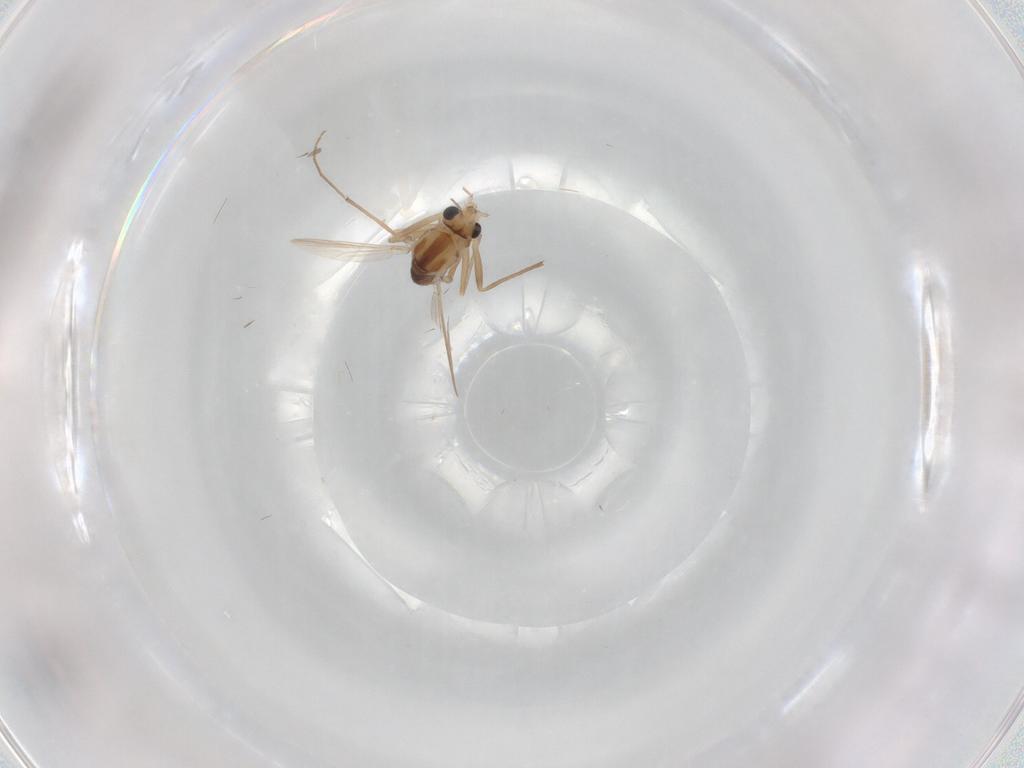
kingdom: Animalia
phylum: Arthropoda
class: Insecta
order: Diptera
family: Chironomidae
